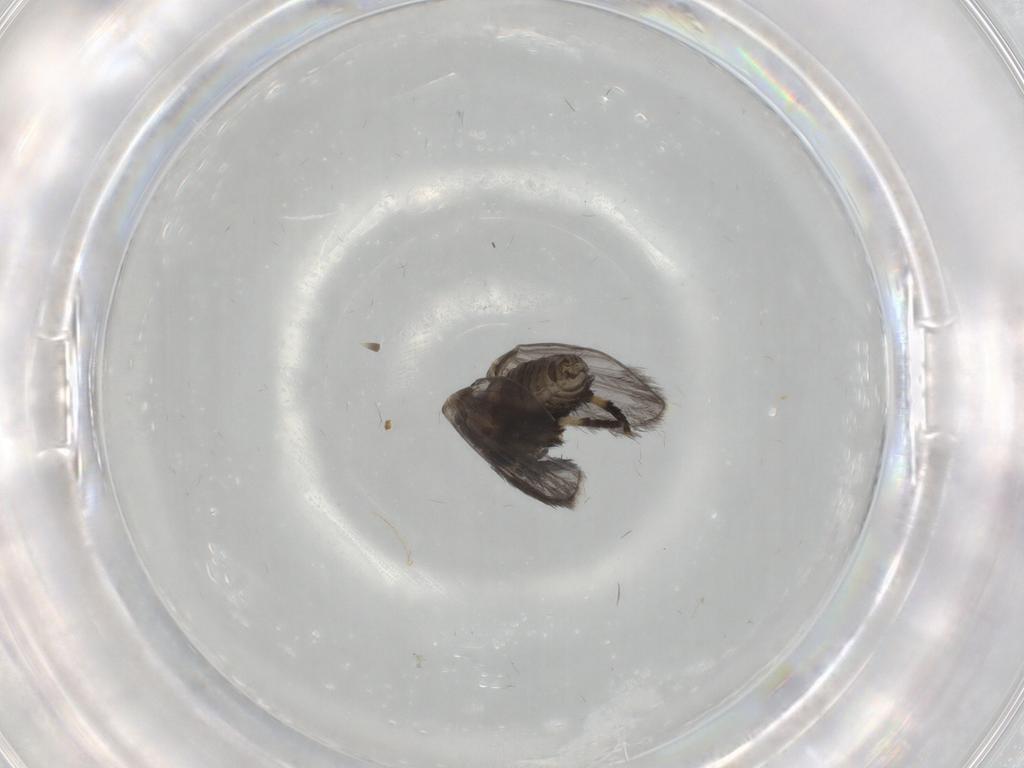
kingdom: Animalia
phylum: Arthropoda
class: Insecta
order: Diptera
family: Psychodidae
